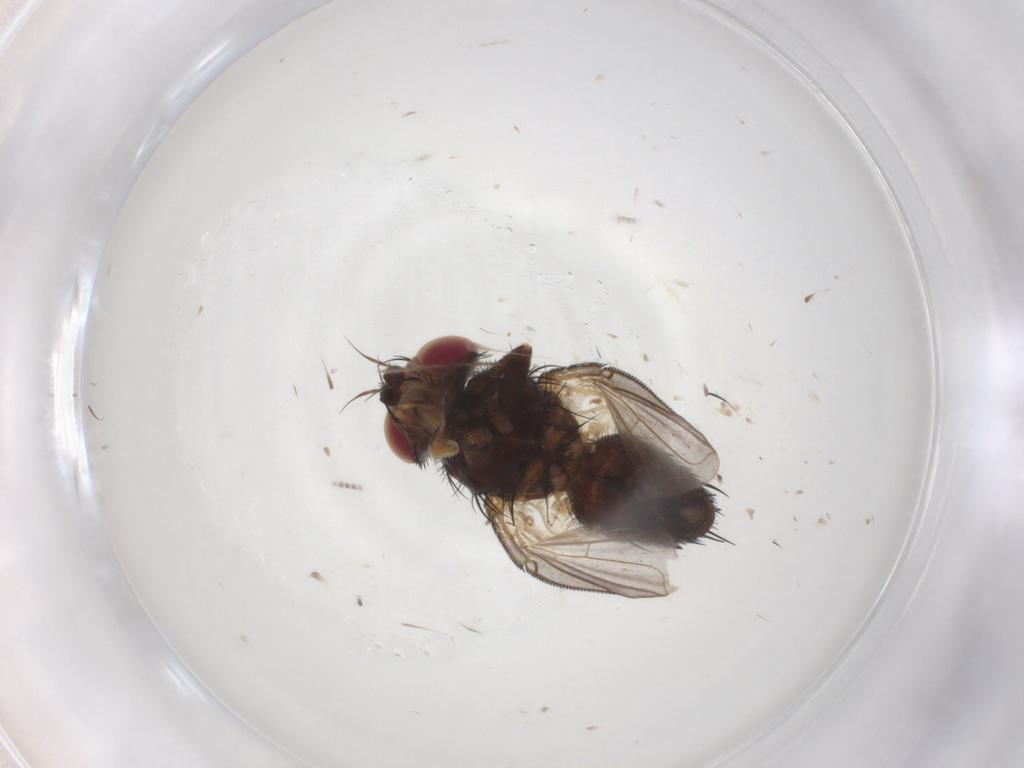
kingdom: Animalia
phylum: Arthropoda
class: Insecta
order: Diptera
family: Tachinidae
